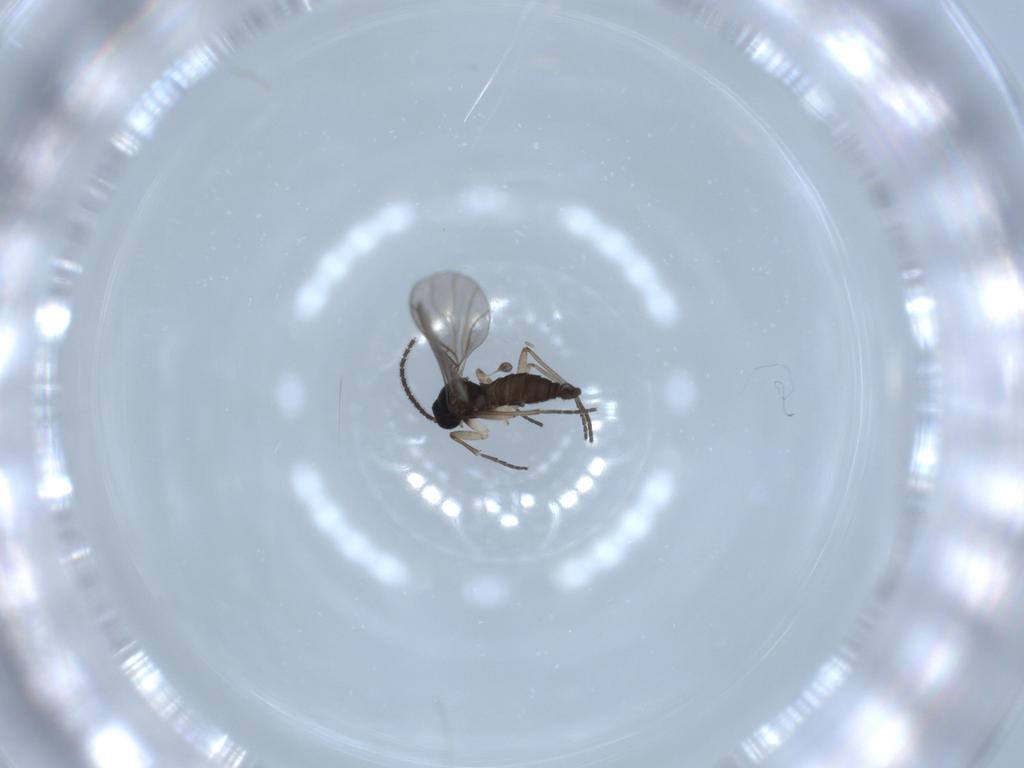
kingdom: Animalia
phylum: Arthropoda
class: Insecta
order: Diptera
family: Sciaridae
